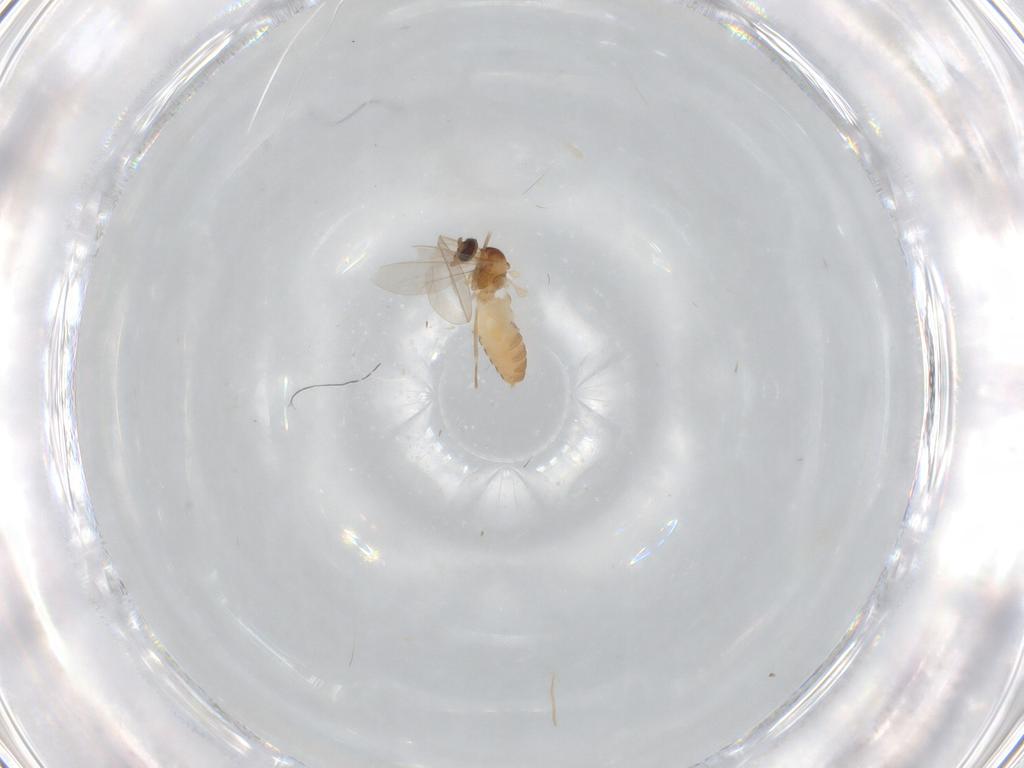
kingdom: Animalia
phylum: Arthropoda
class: Insecta
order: Diptera
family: Cecidomyiidae
